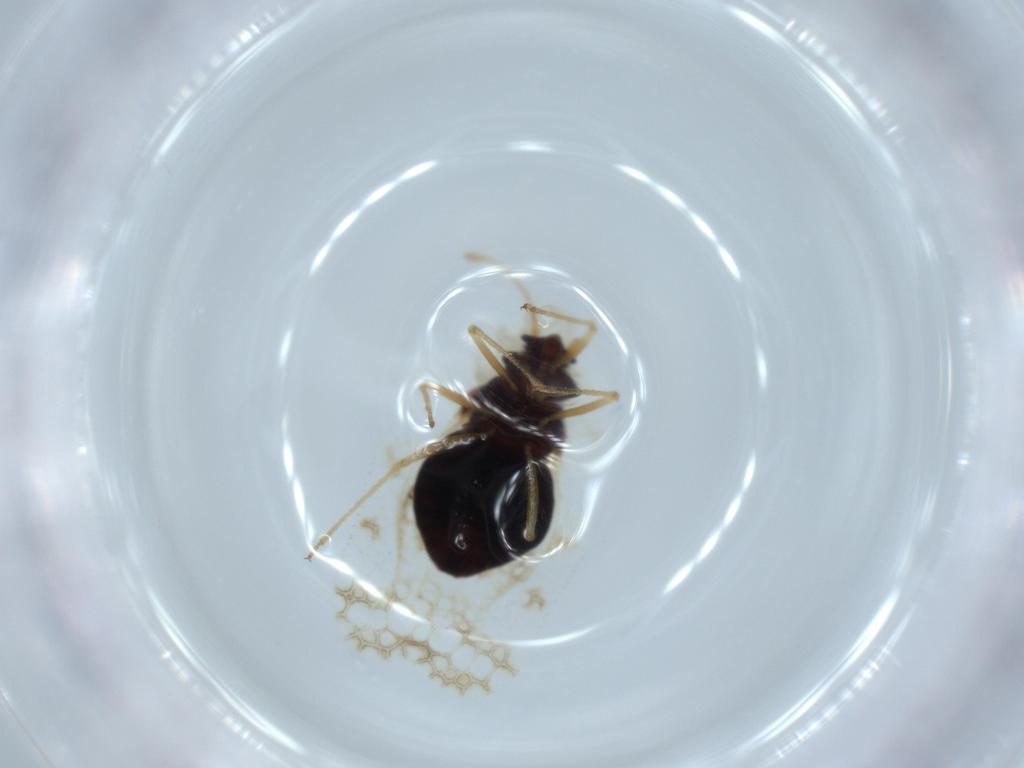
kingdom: Animalia
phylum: Arthropoda
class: Insecta
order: Hemiptera
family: Tingidae
